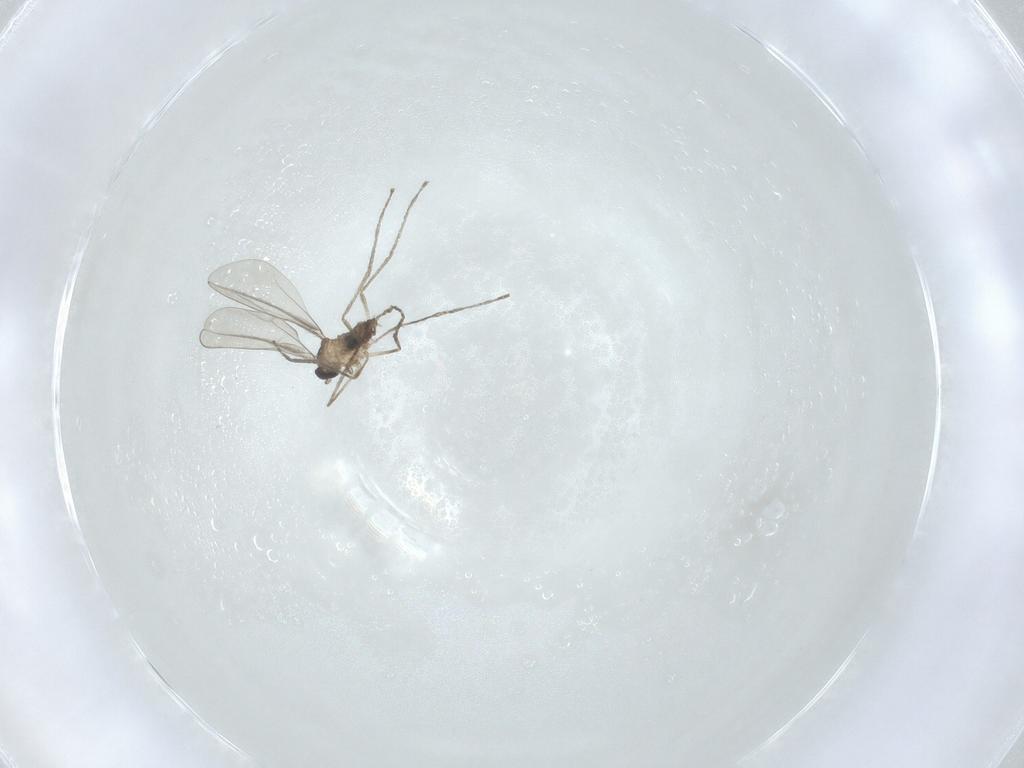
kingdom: Animalia
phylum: Arthropoda
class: Insecta
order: Diptera
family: Cecidomyiidae
